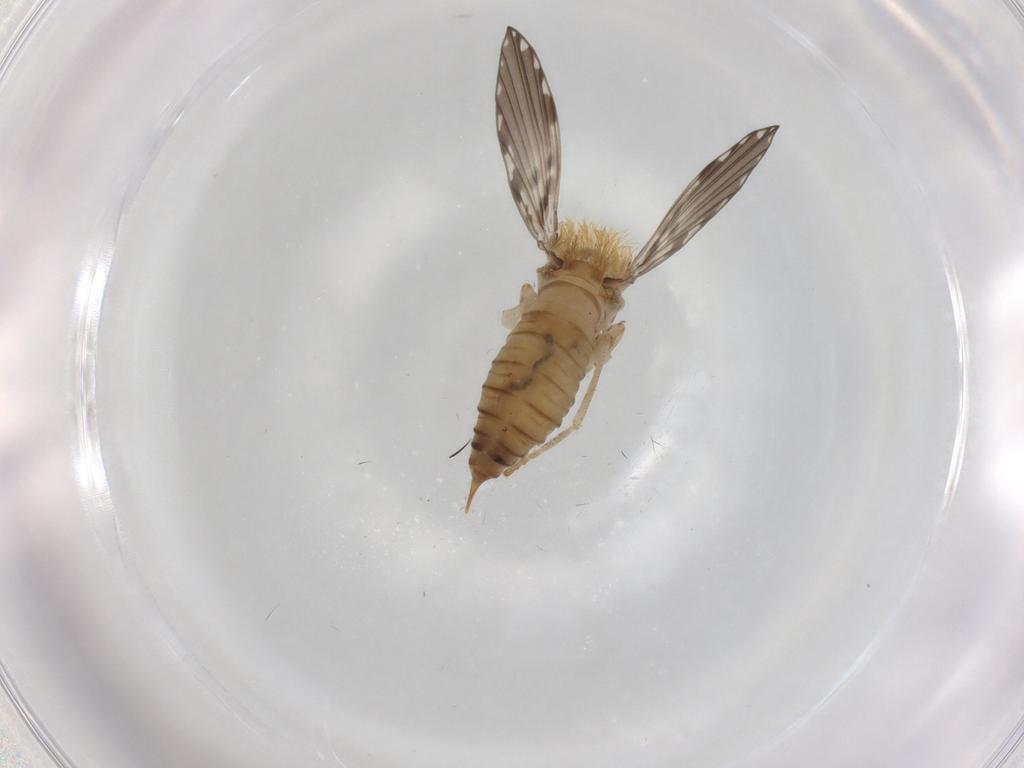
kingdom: Animalia
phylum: Arthropoda
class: Insecta
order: Diptera
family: Psychodidae
